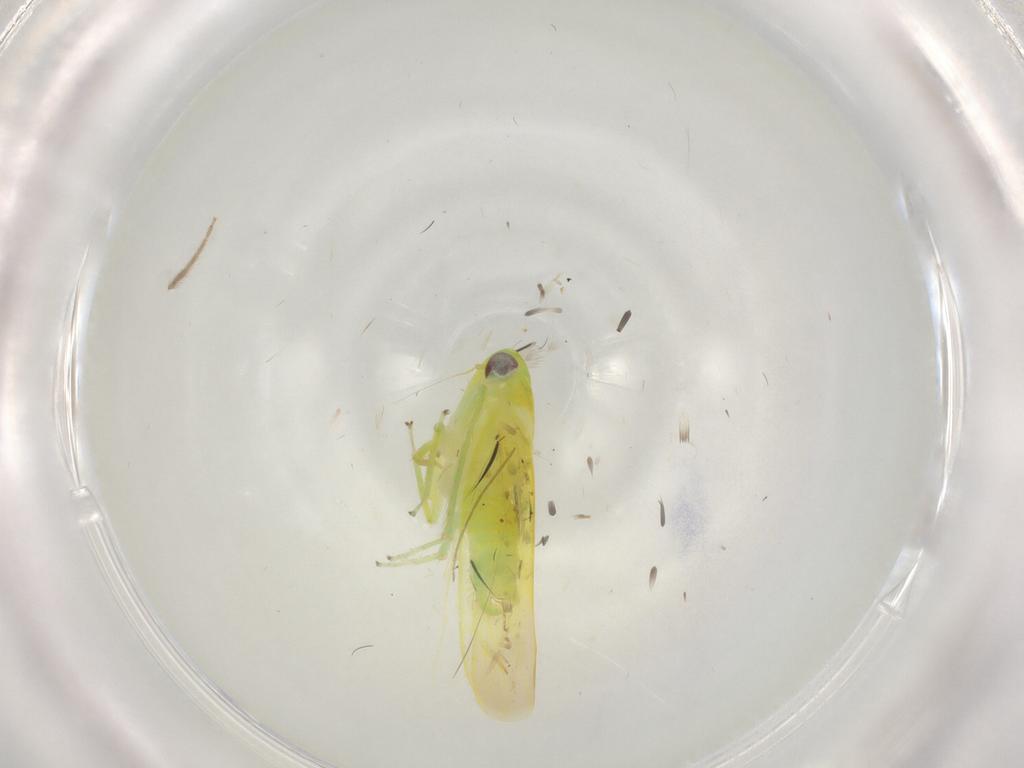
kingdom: Animalia
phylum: Arthropoda
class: Insecta
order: Hemiptera
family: Cicadellidae
